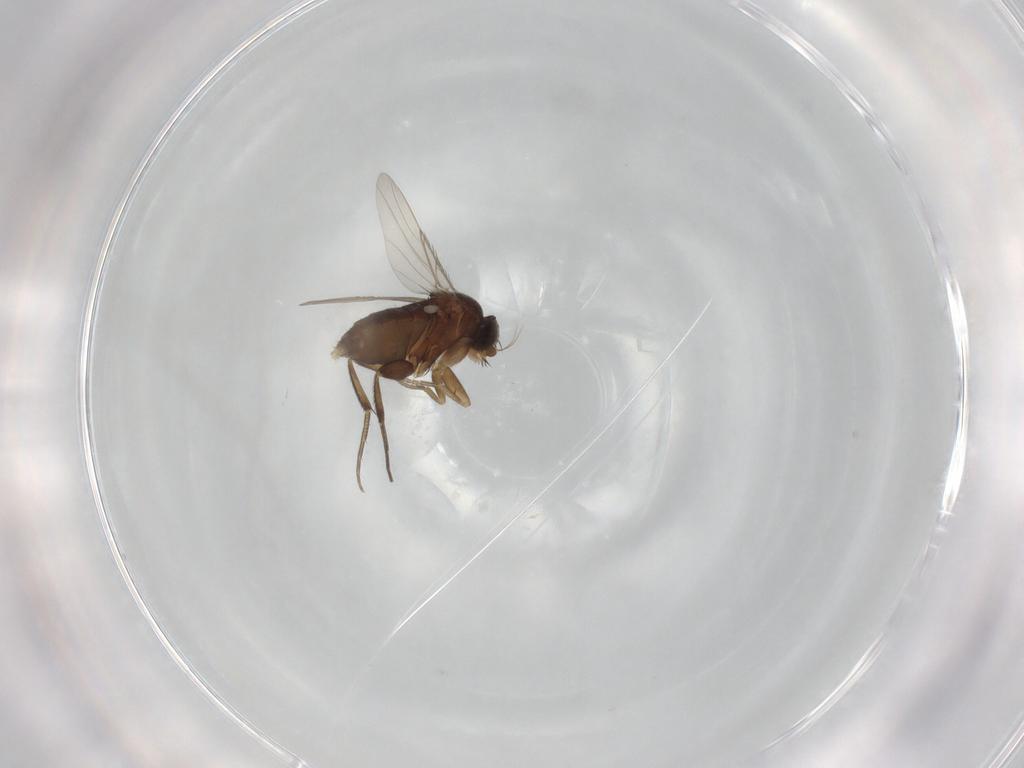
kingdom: Animalia
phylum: Arthropoda
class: Insecta
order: Diptera
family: Phoridae
